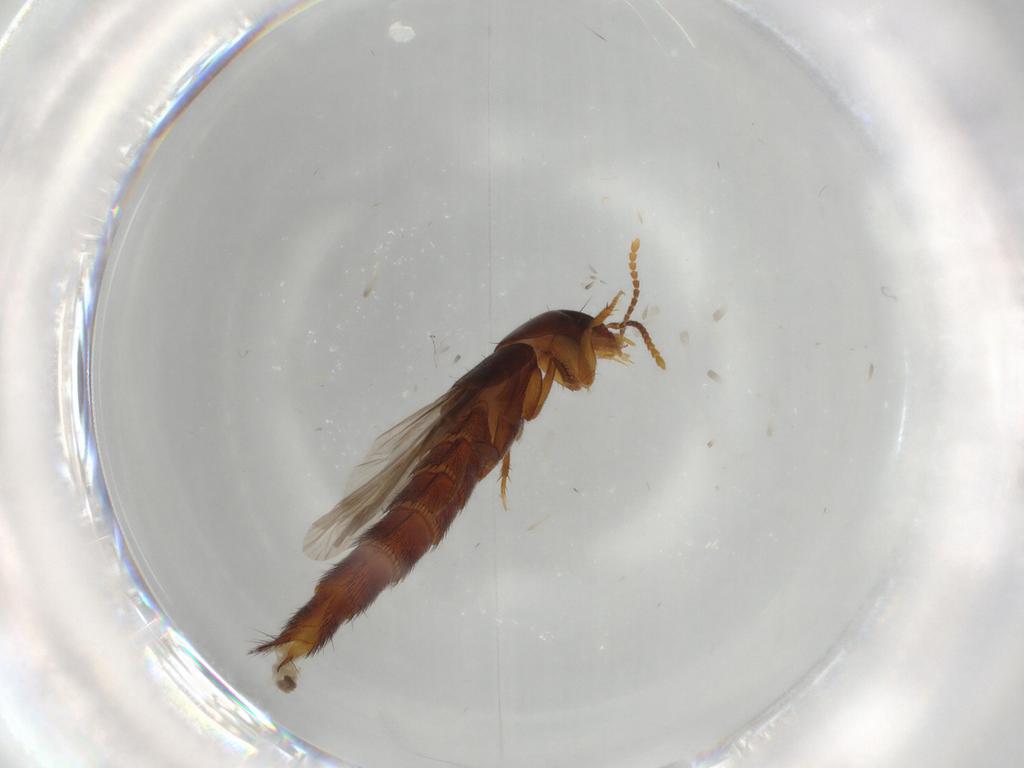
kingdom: Animalia
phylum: Arthropoda
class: Insecta
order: Coleoptera
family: Staphylinidae
